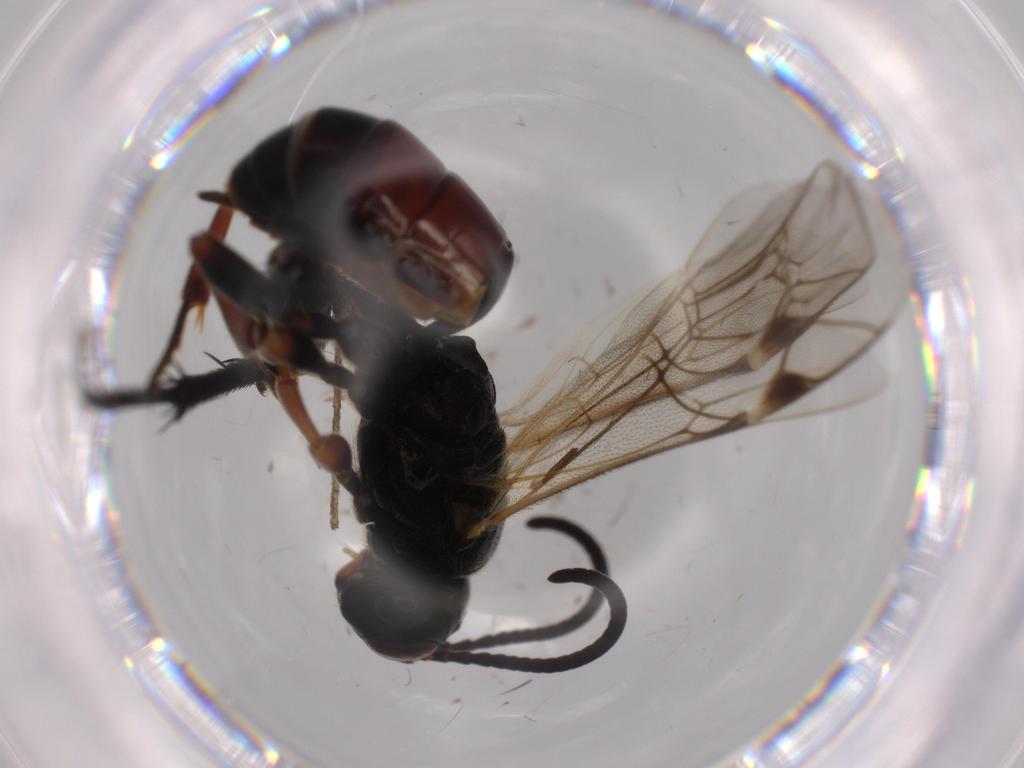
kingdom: Animalia
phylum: Arthropoda
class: Insecta
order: Hymenoptera
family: Ichneumonidae
